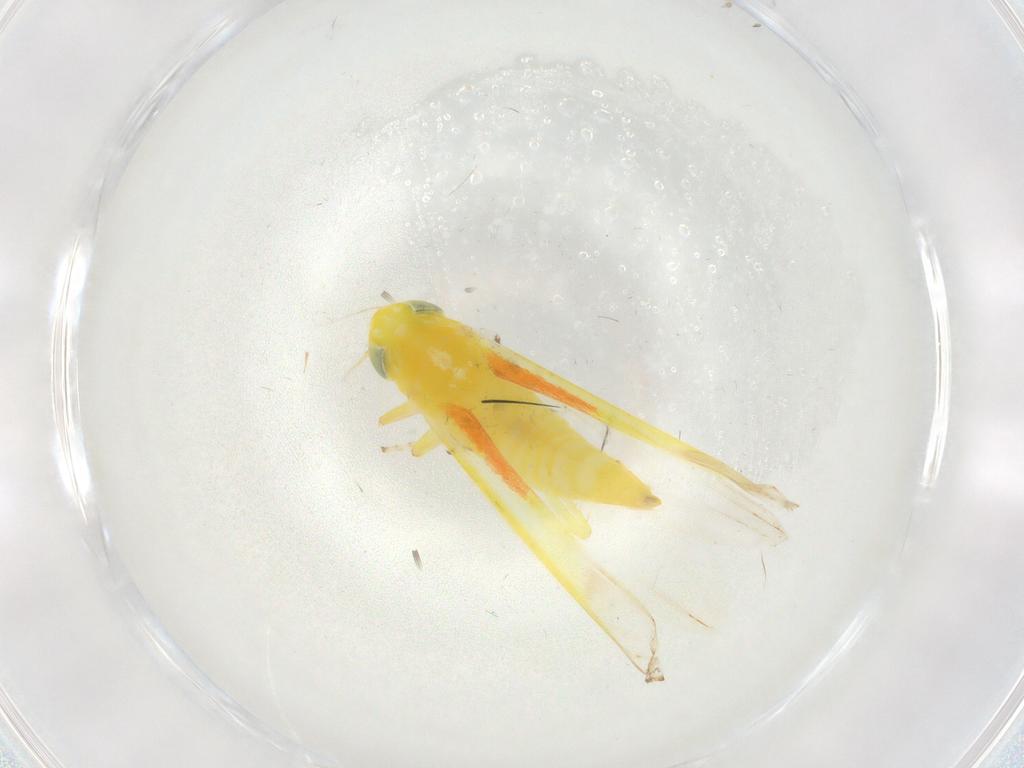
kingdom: Animalia
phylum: Arthropoda
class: Insecta
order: Hemiptera
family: Cicadellidae
